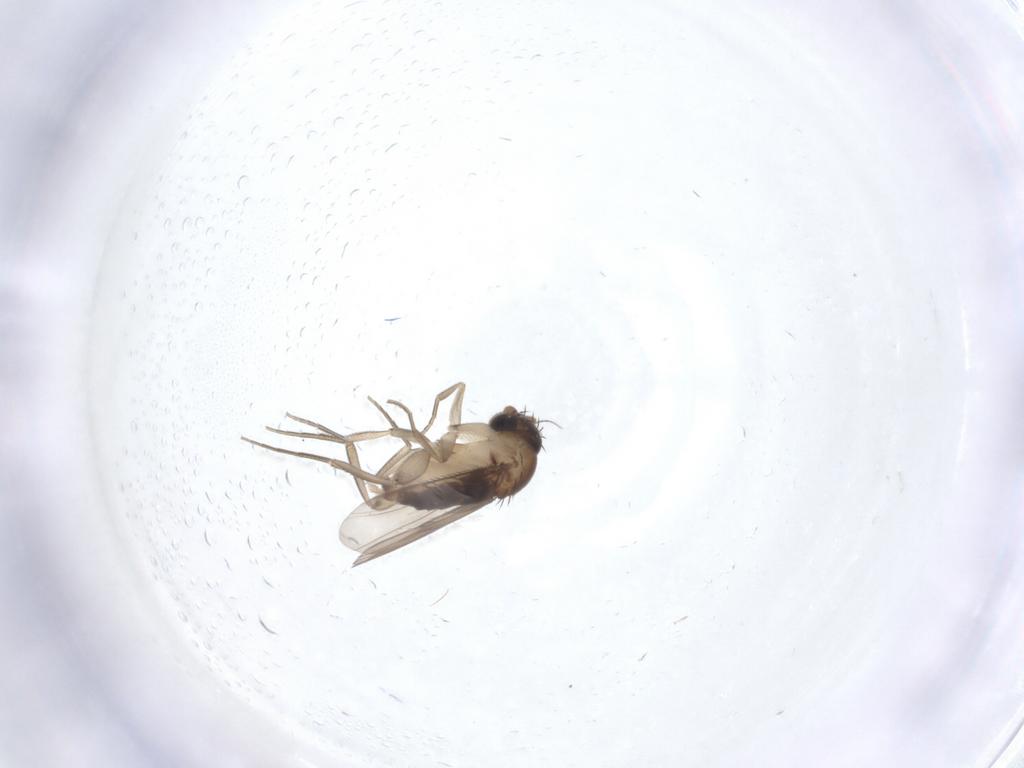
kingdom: Animalia
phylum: Arthropoda
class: Insecta
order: Diptera
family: Phoridae
